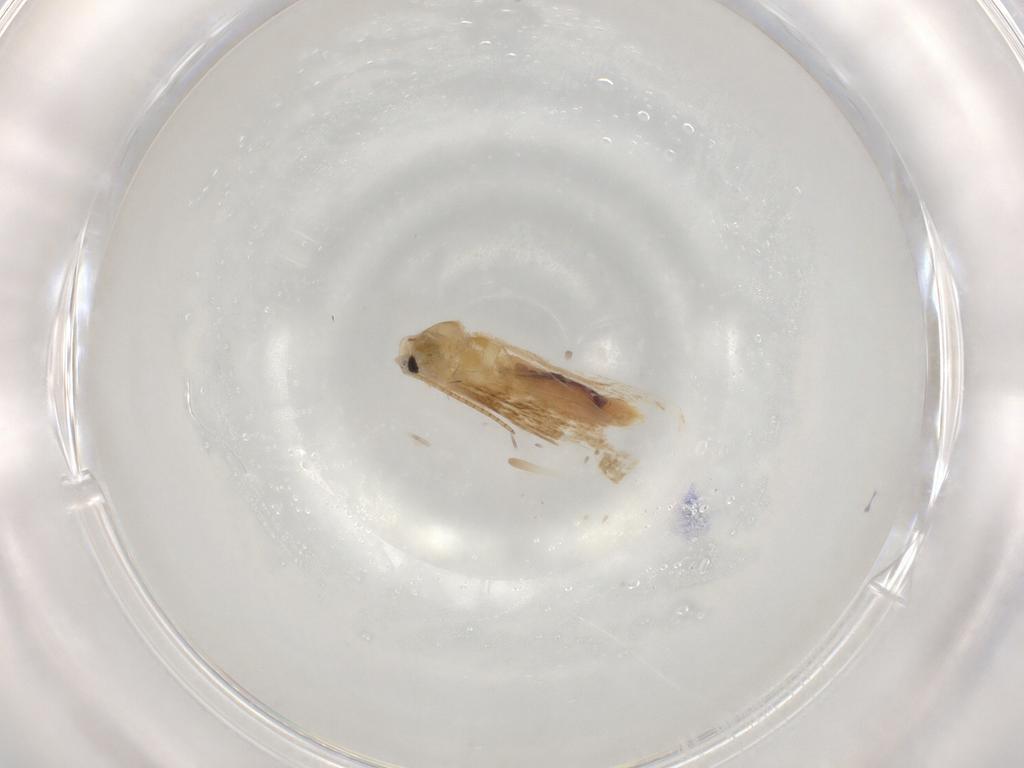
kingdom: Animalia
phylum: Arthropoda
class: Insecta
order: Lepidoptera
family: Bucculatricidae
